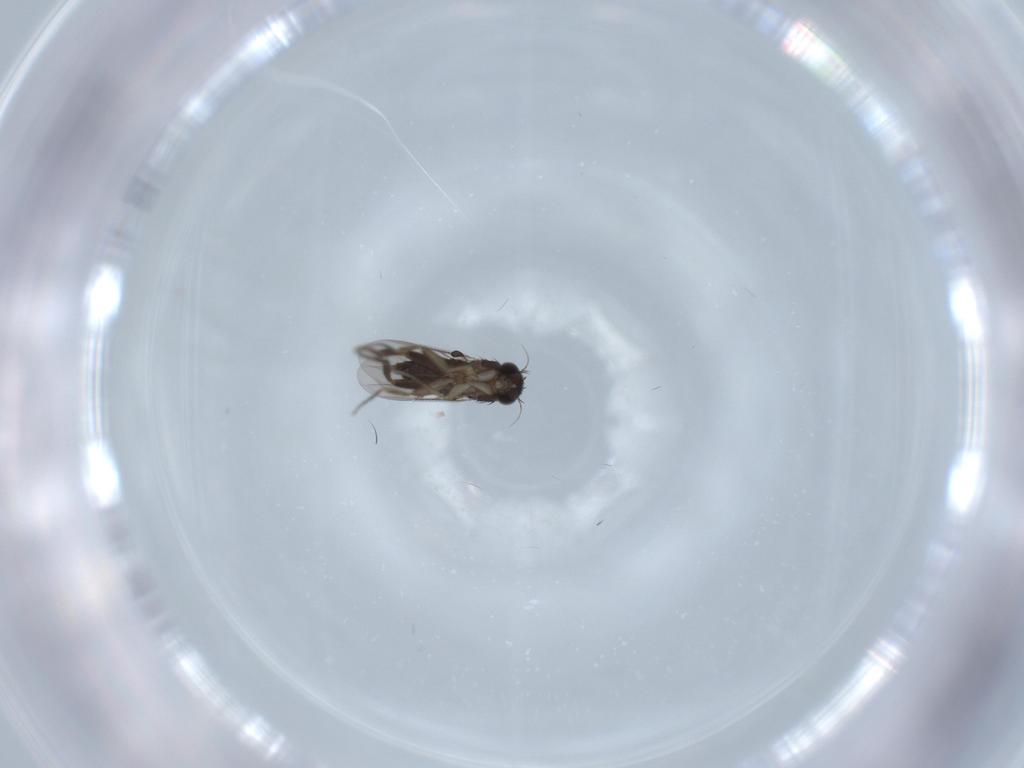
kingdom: Animalia
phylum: Arthropoda
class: Insecta
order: Diptera
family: Phoridae
